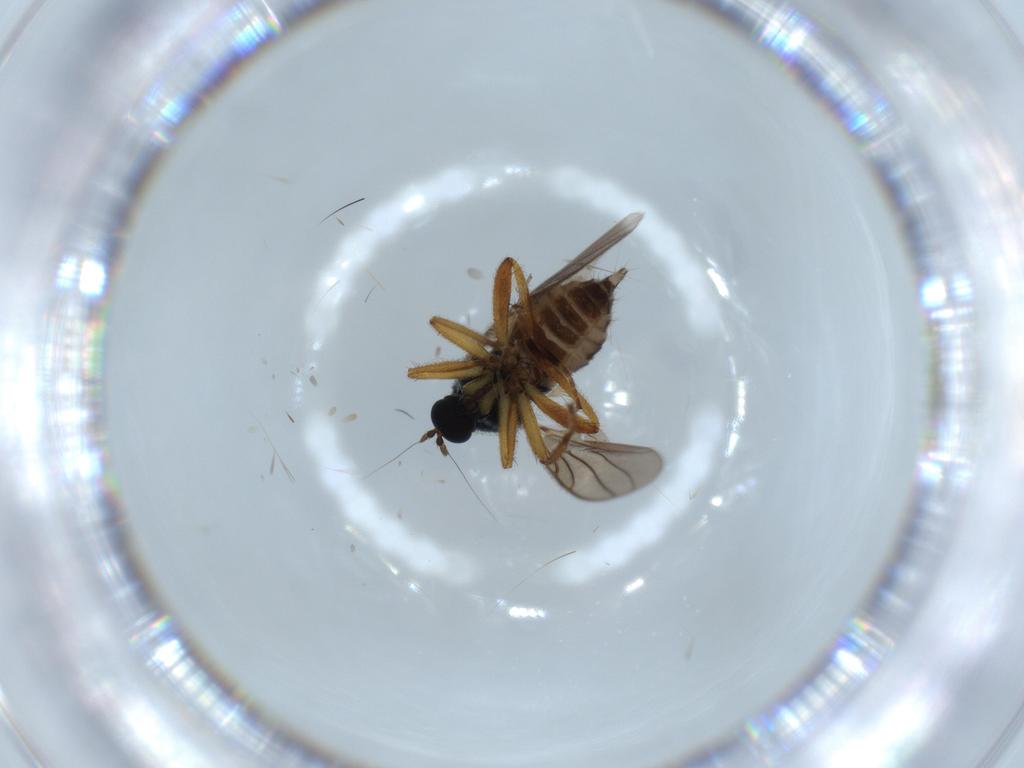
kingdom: Animalia
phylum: Arthropoda
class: Insecta
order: Diptera
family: Hybotidae
